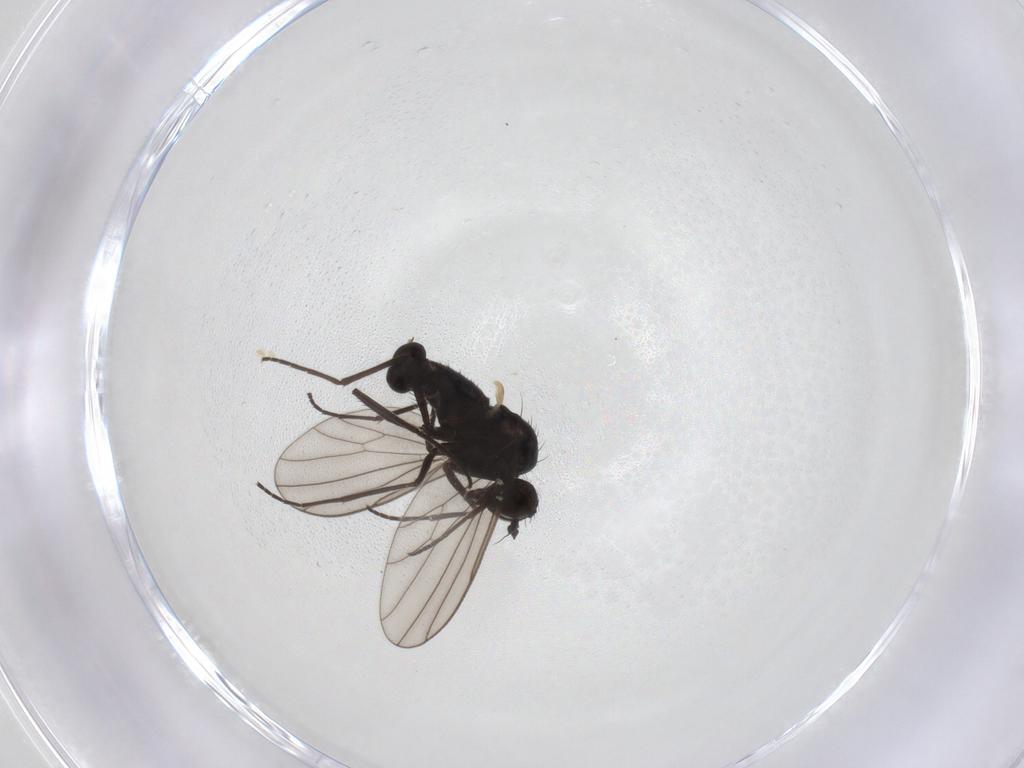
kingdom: Animalia
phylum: Arthropoda
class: Insecta
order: Diptera
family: Dolichopodidae
